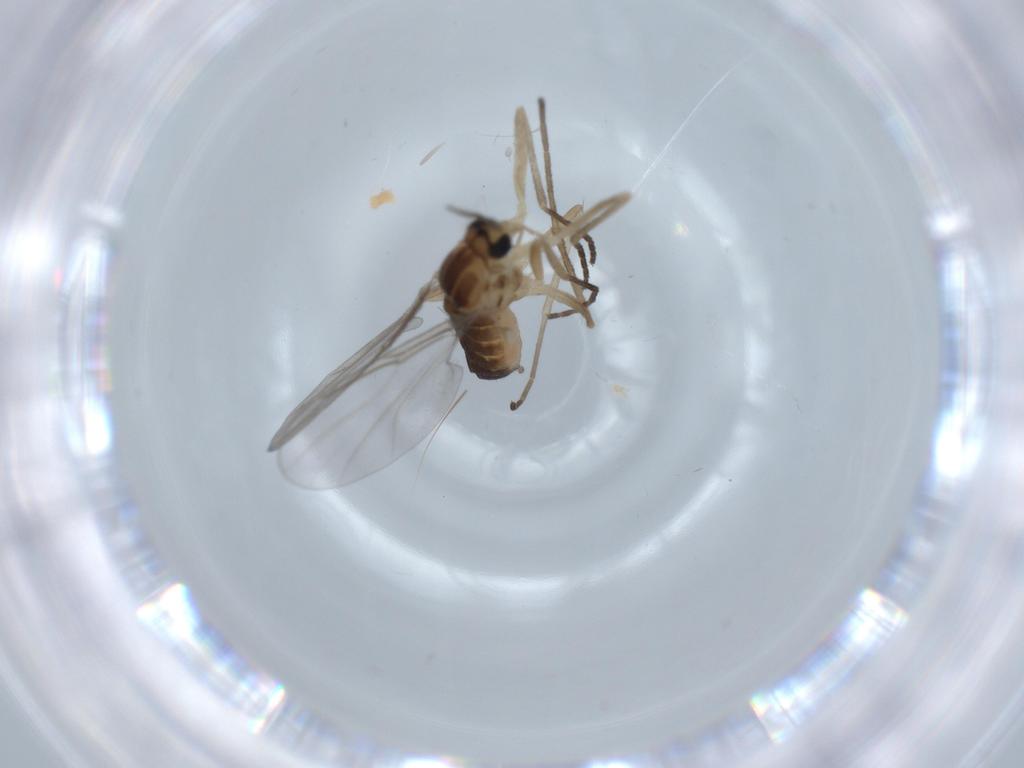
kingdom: Animalia
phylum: Arthropoda
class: Insecta
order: Diptera
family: Cecidomyiidae
